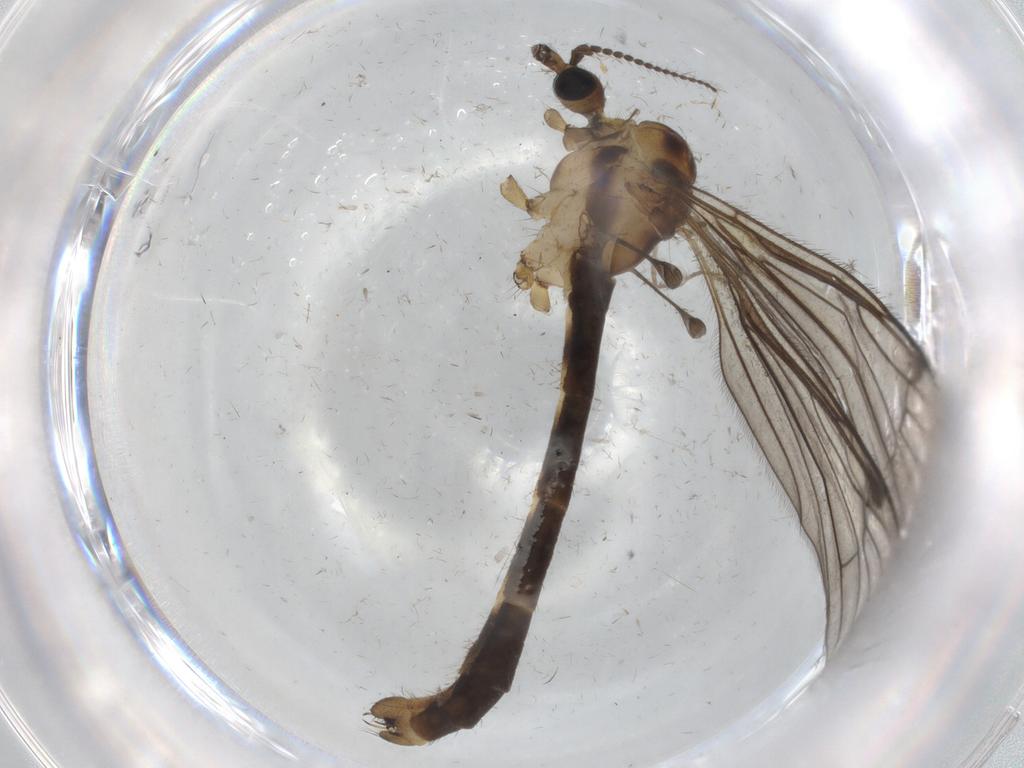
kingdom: Animalia
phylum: Arthropoda
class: Insecta
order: Diptera
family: Limoniidae
